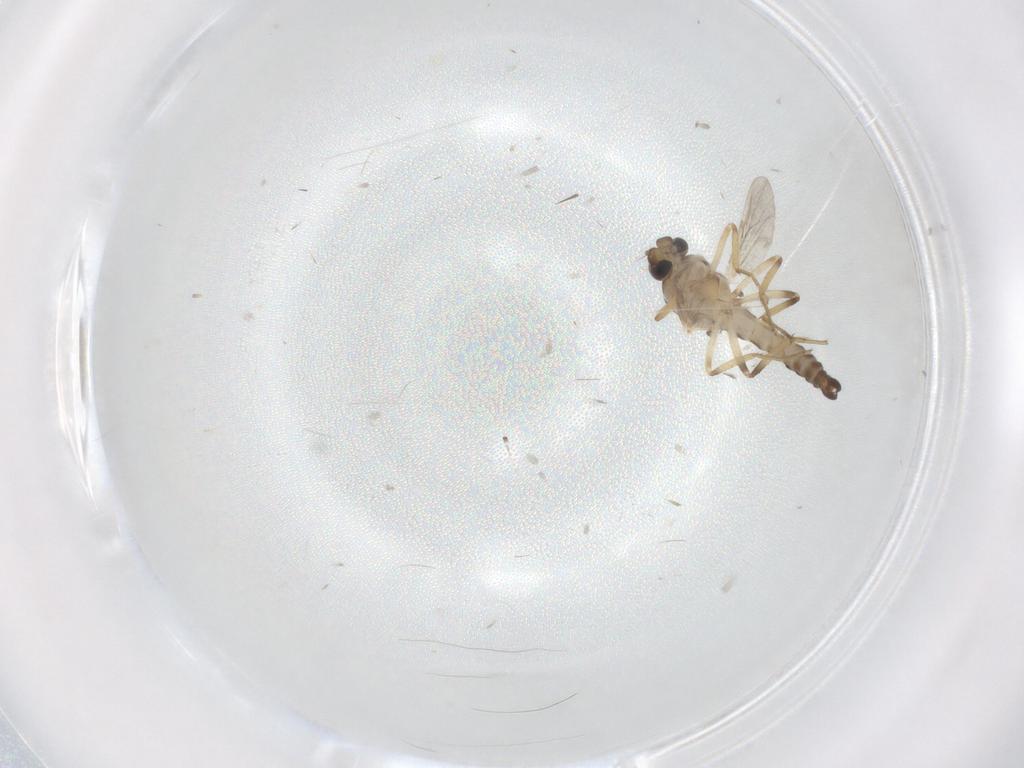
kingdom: Animalia
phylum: Arthropoda
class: Insecta
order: Diptera
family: Ceratopogonidae
